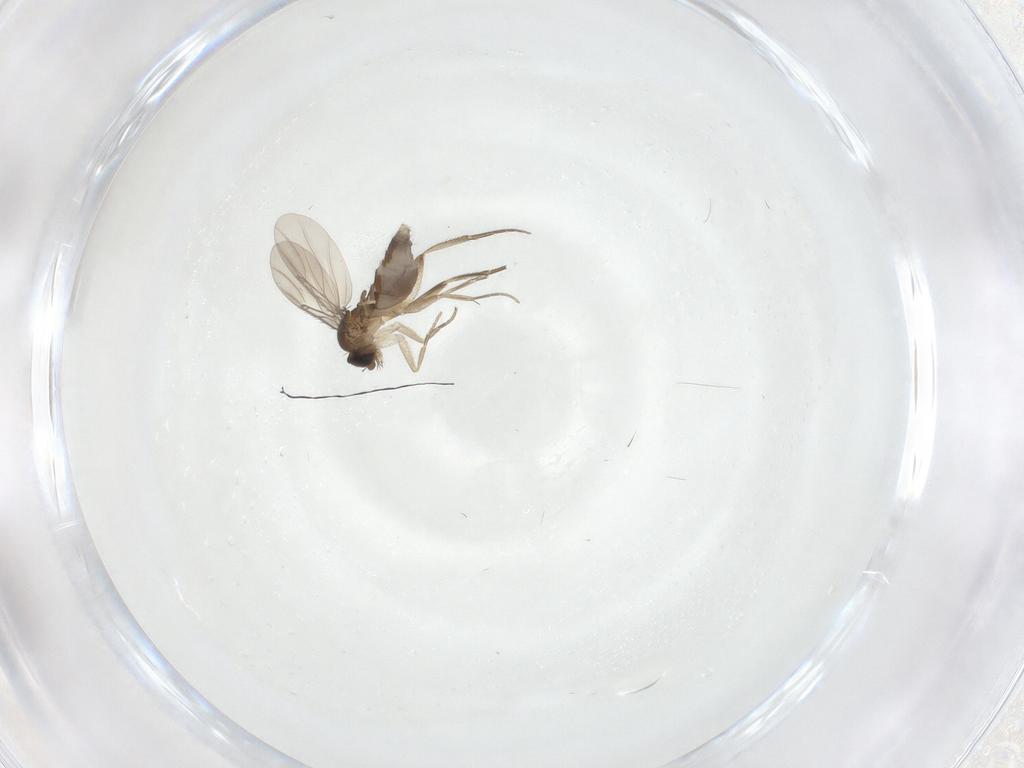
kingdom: Animalia
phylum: Arthropoda
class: Insecta
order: Diptera
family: Phoridae
